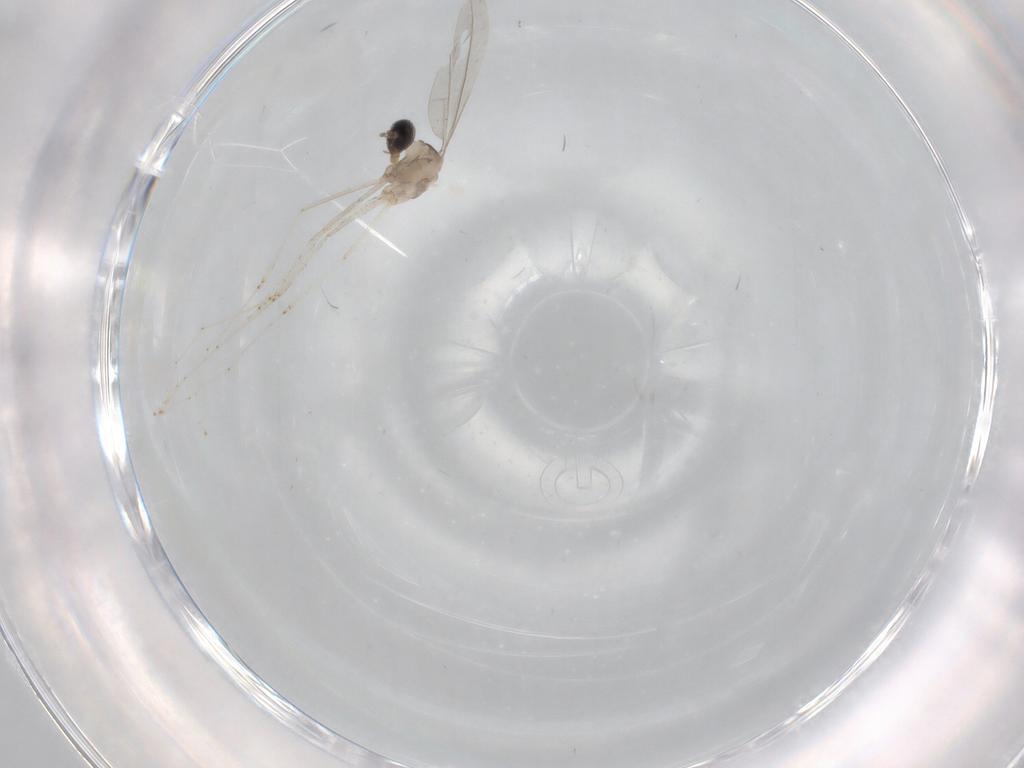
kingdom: Animalia
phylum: Arthropoda
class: Insecta
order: Diptera
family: Cecidomyiidae
